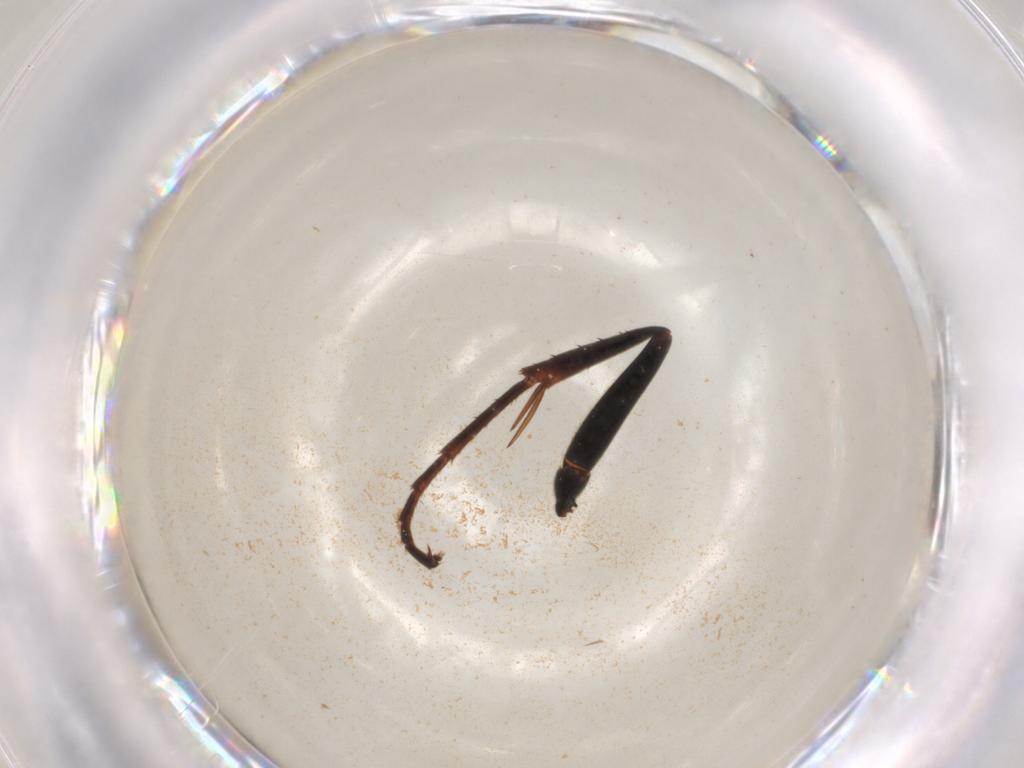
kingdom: Animalia
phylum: Arthropoda
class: Insecta
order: Hymenoptera
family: Pompilidae
